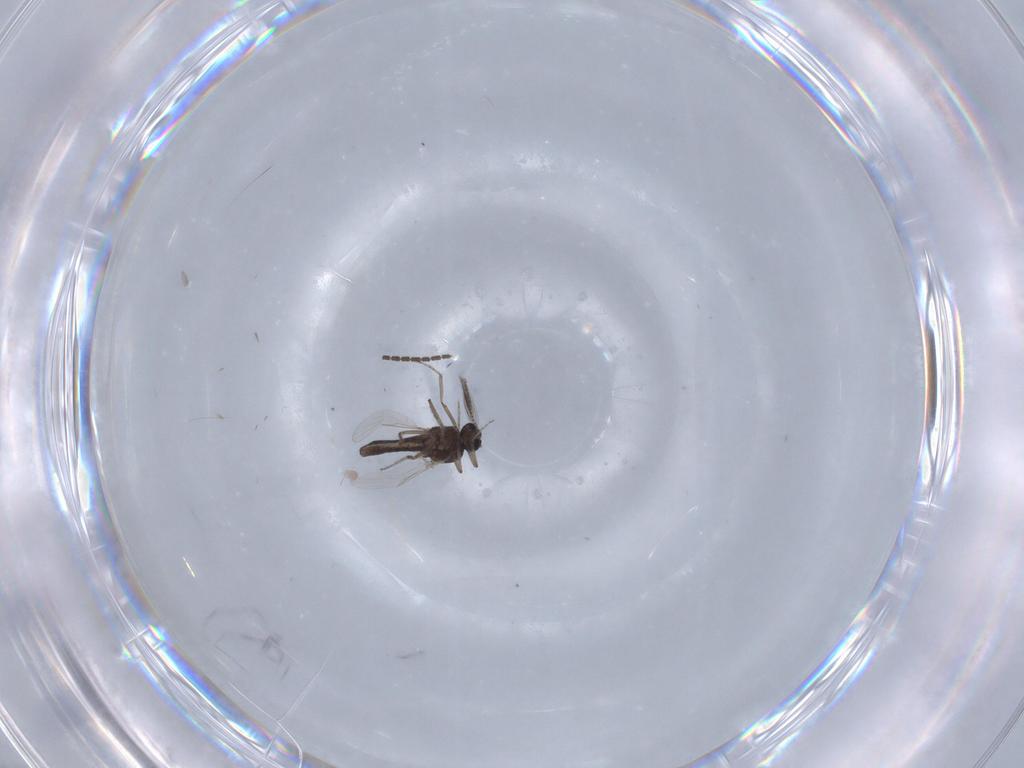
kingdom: Animalia
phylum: Arthropoda
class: Insecta
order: Diptera
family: Ceratopogonidae
